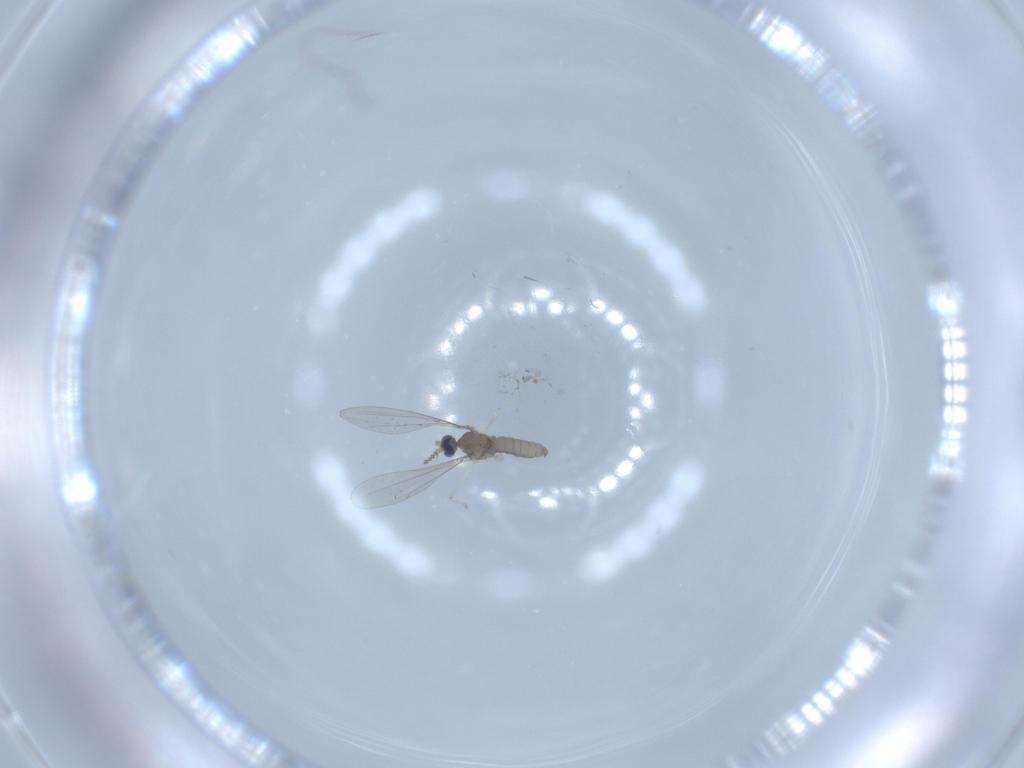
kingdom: Animalia
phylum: Arthropoda
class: Insecta
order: Diptera
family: Cecidomyiidae
